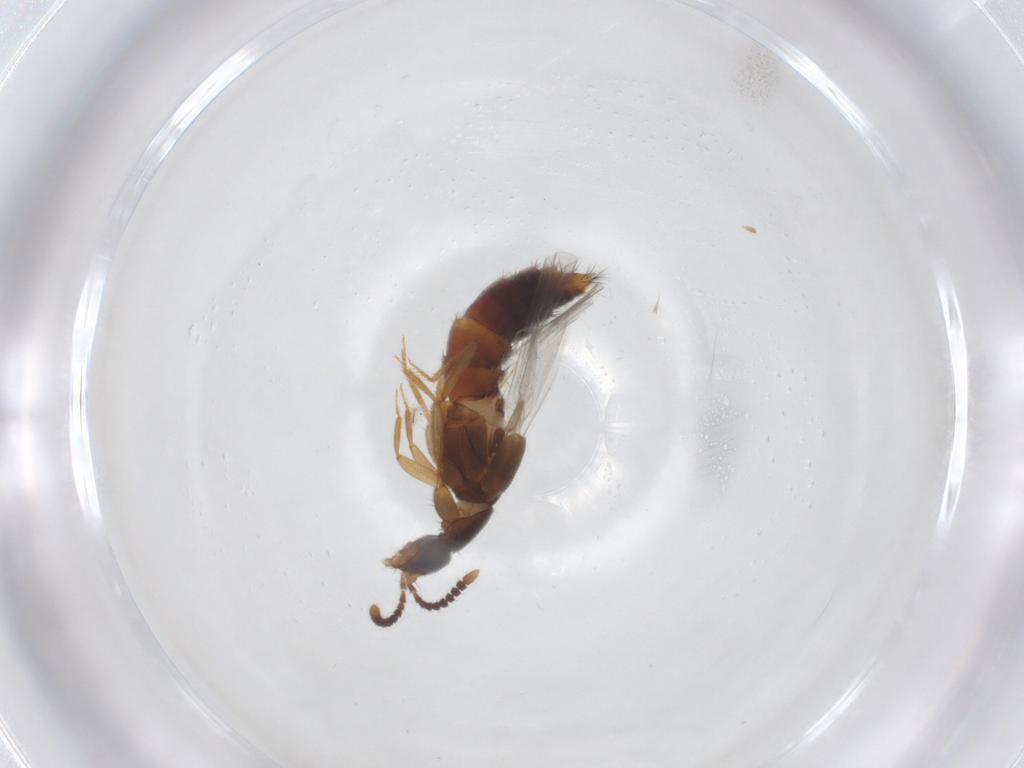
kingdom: Animalia
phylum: Arthropoda
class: Insecta
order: Coleoptera
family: Staphylinidae
